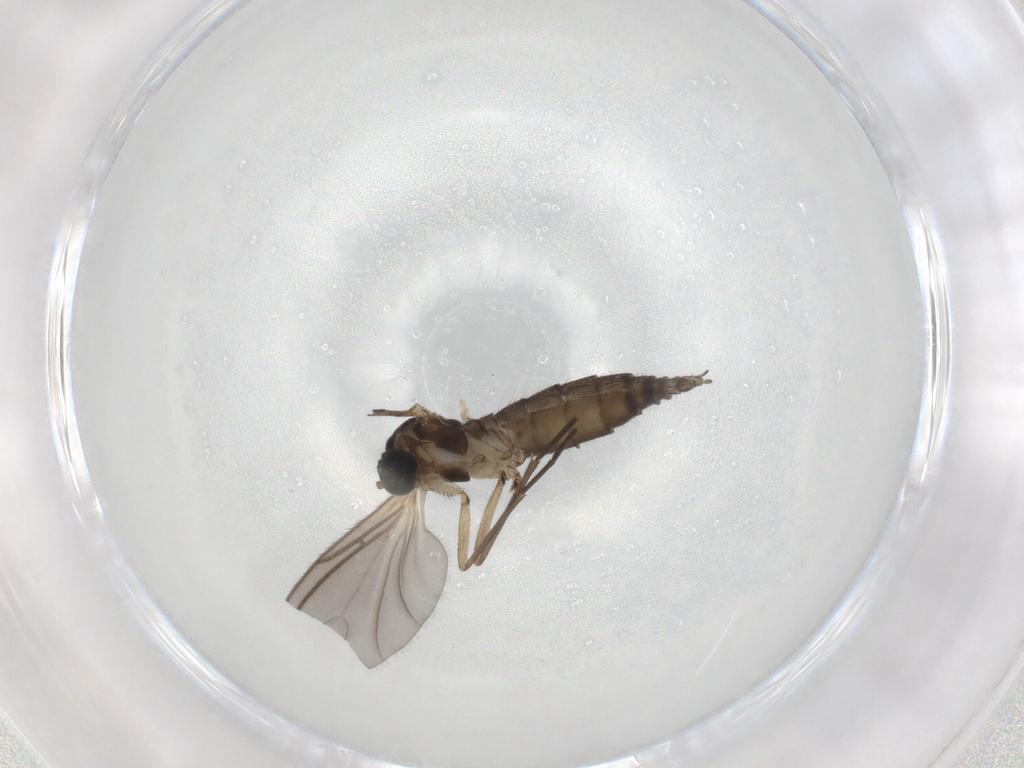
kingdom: Animalia
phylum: Arthropoda
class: Insecta
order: Diptera
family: Sciaridae
